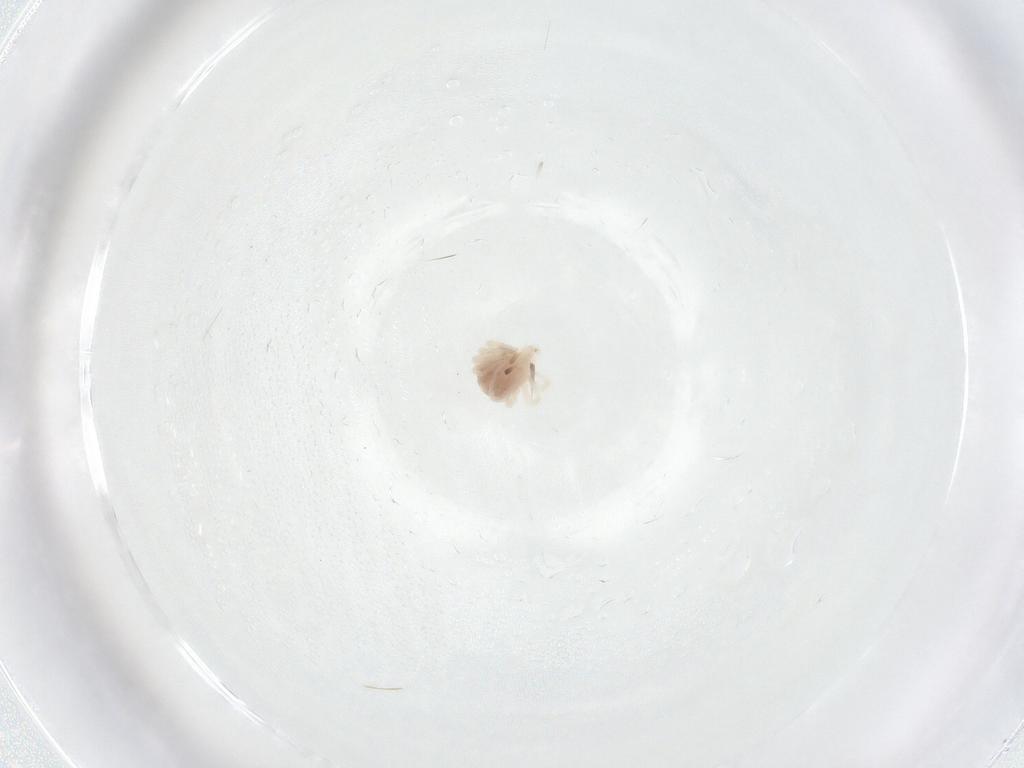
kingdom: Animalia
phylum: Arthropoda
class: Arachnida
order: Trombidiformes
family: Anystidae
